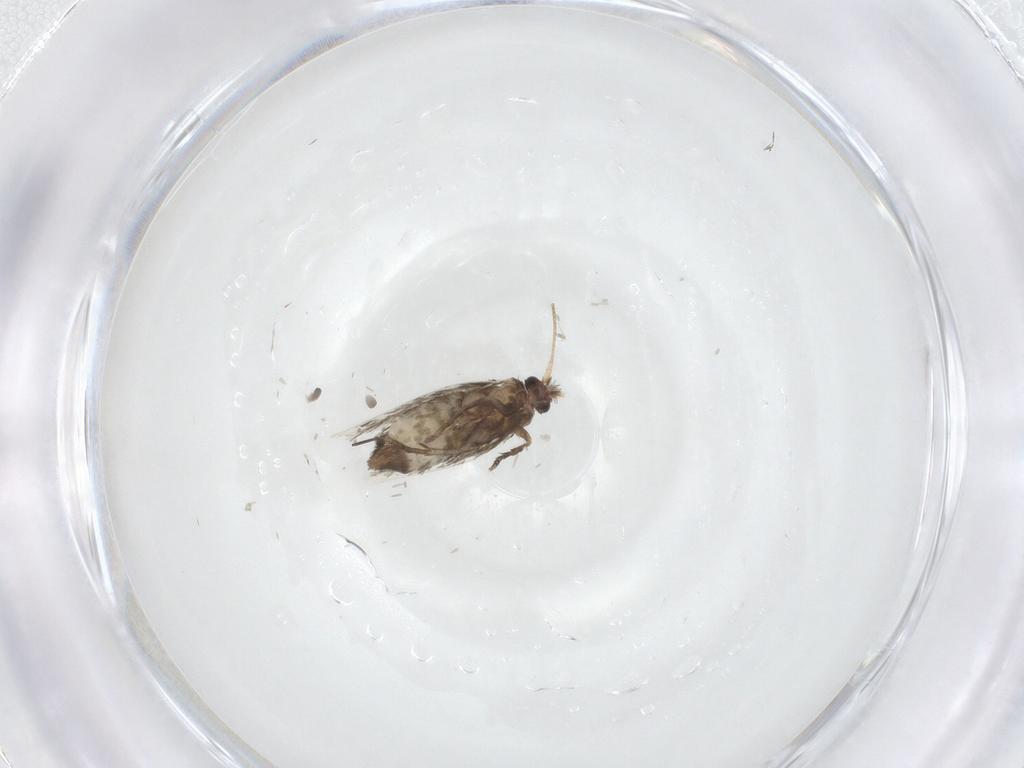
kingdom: Animalia
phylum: Arthropoda
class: Insecta
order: Lepidoptera
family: Nepticulidae
